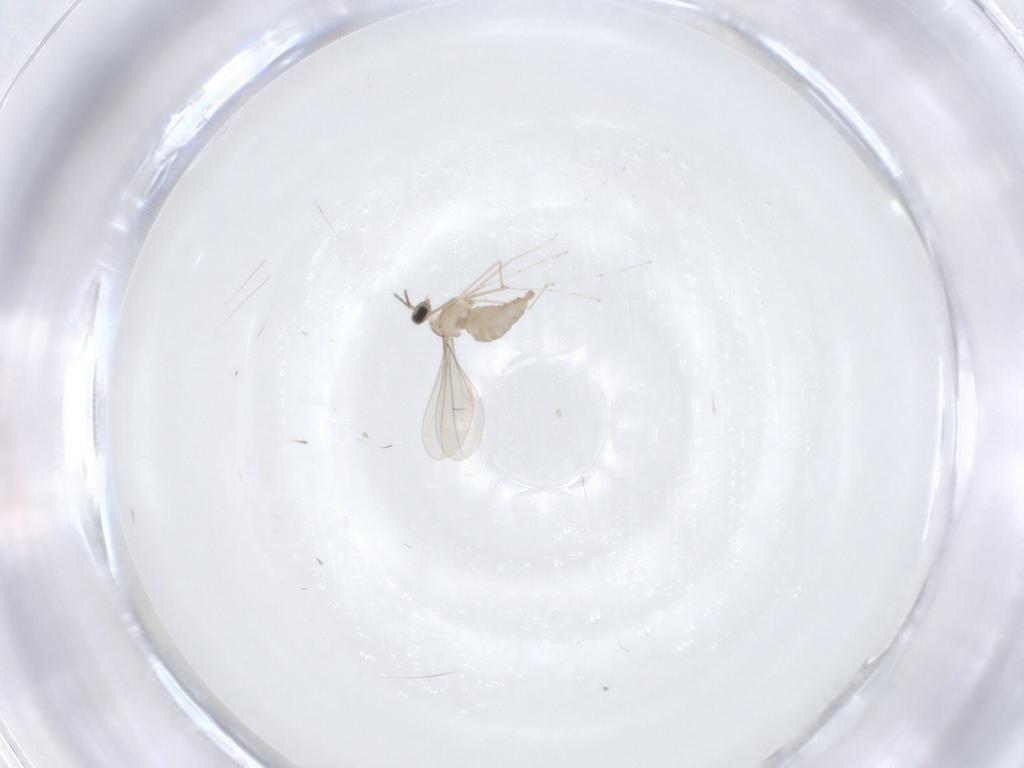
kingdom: Animalia
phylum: Arthropoda
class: Insecta
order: Diptera
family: Cecidomyiidae
